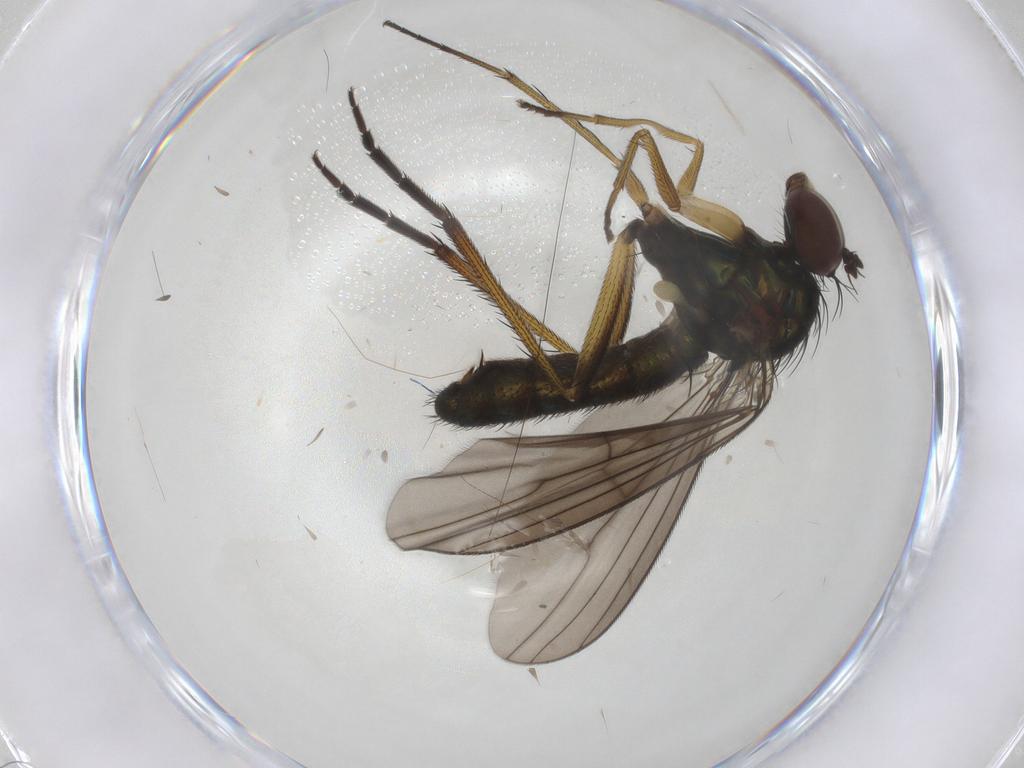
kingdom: Animalia
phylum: Arthropoda
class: Insecta
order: Diptera
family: Dolichopodidae
